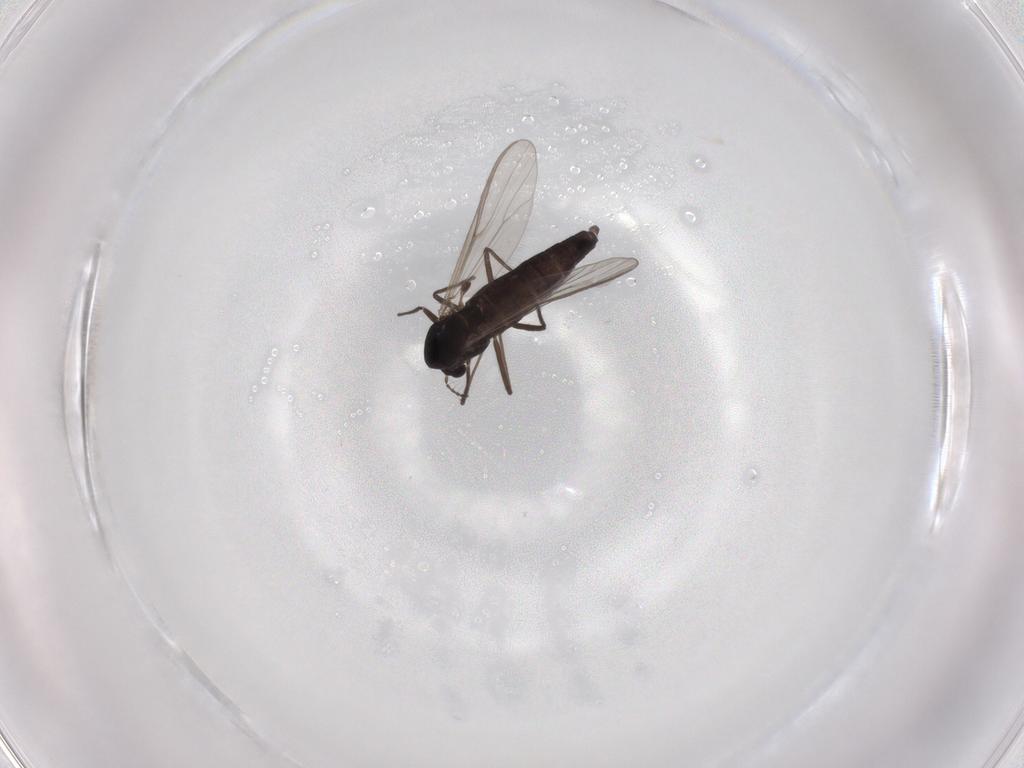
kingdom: Animalia
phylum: Arthropoda
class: Insecta
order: Diptera
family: Chironomidae
